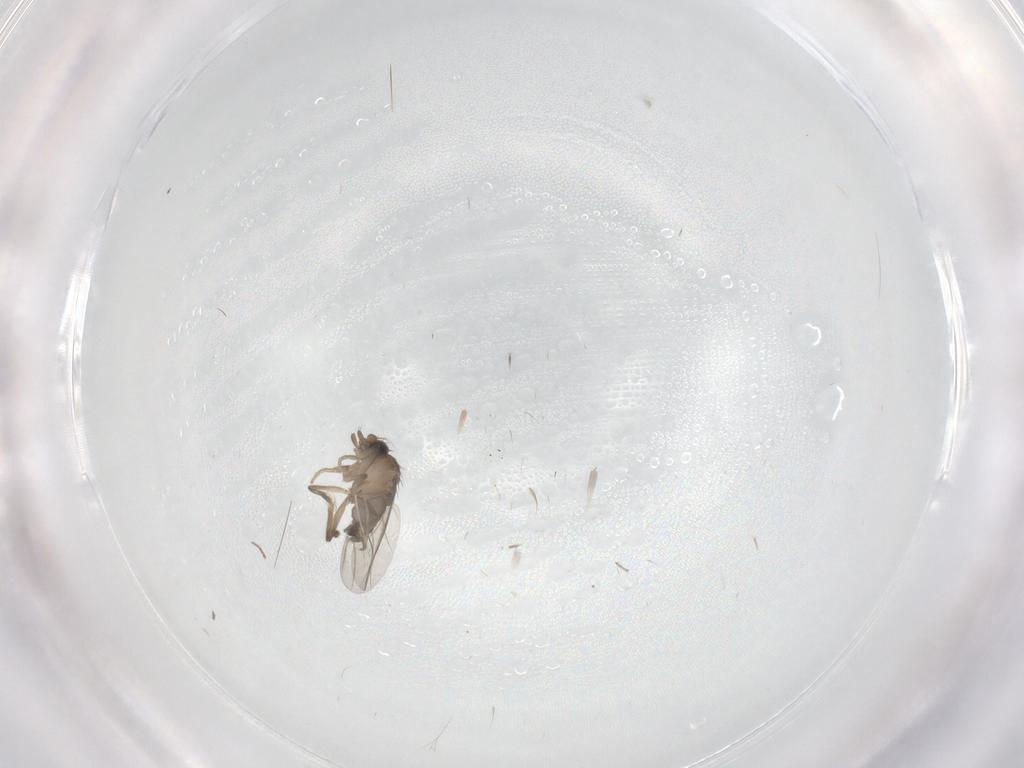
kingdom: Animalia
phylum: Arthropoda
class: Insecta
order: Diptera
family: Cecidomyiidae
